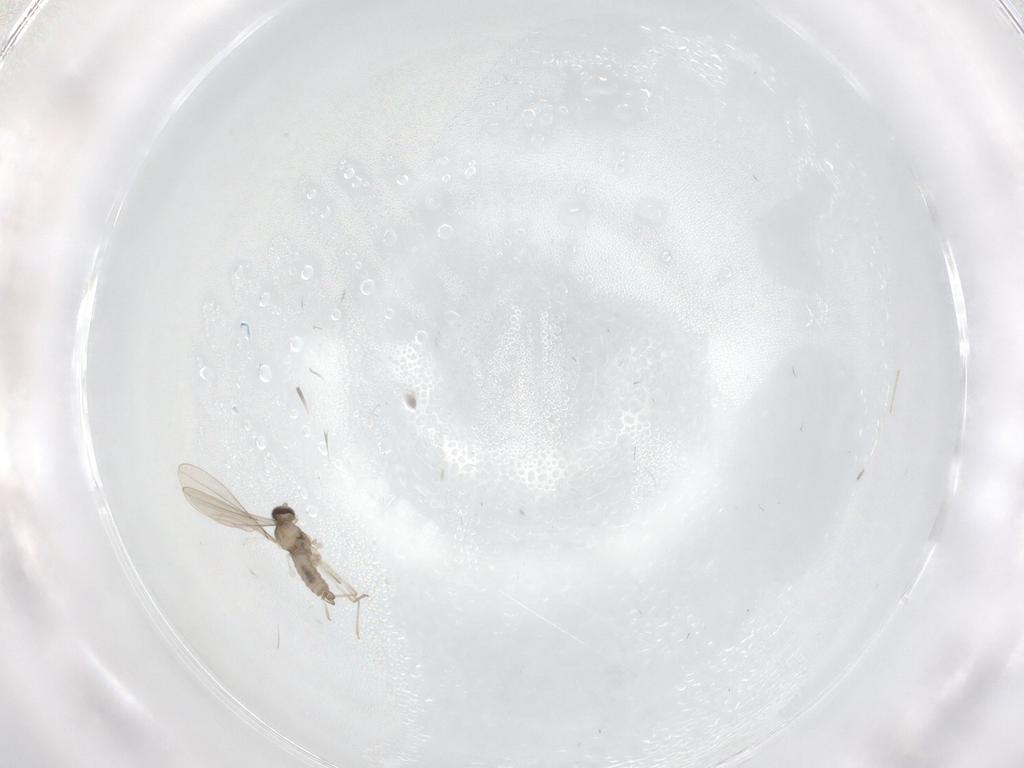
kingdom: Animalia
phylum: Arthropoda
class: Insecta
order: Diptera
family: Cecidomyiidae
